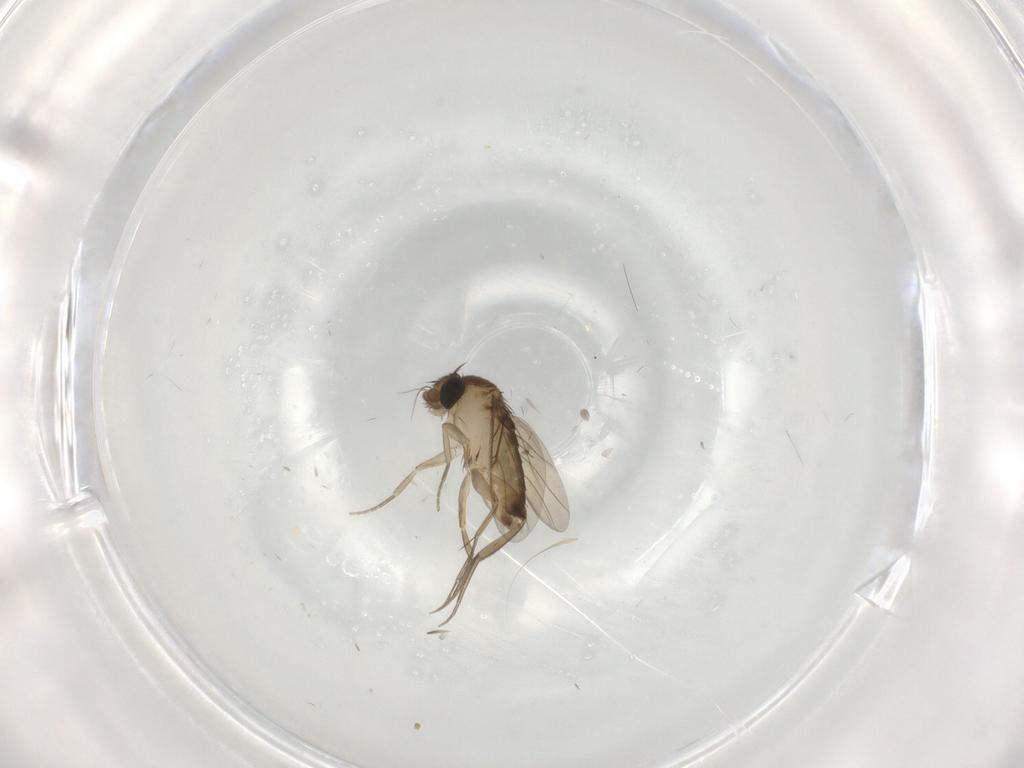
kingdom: Animalia
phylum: Arthropoda
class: Insecta
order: Diptera
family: Phoridae
